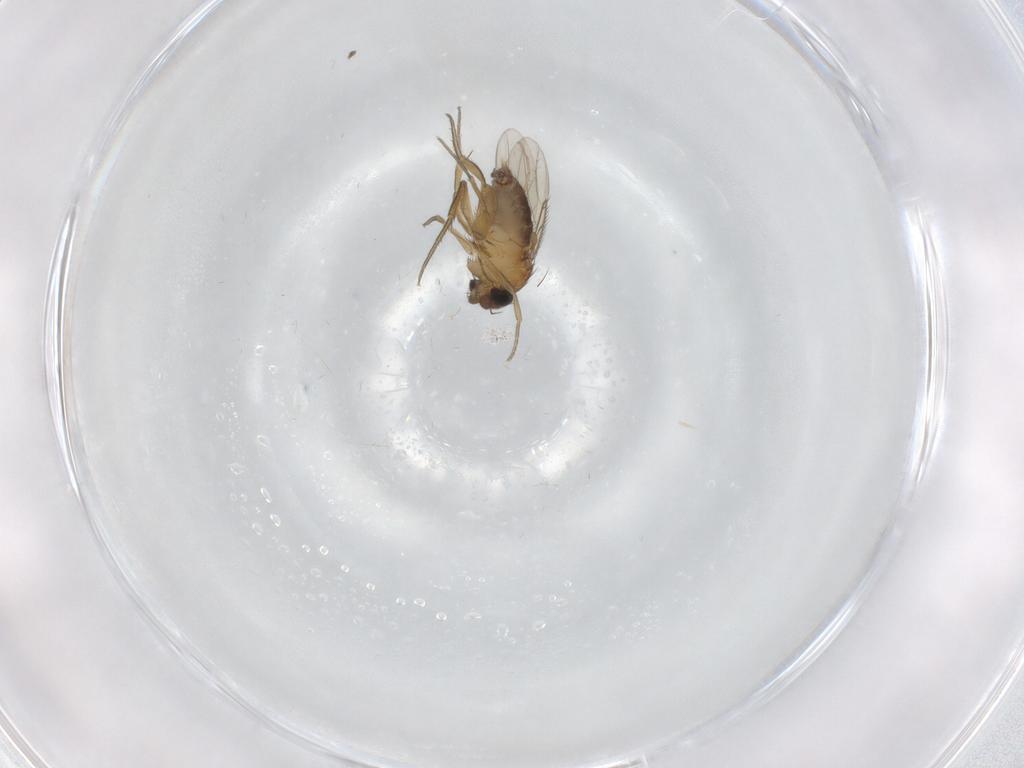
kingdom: Animalia
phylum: Arthropoda
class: Insecta
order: Diptera
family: Phoridae
